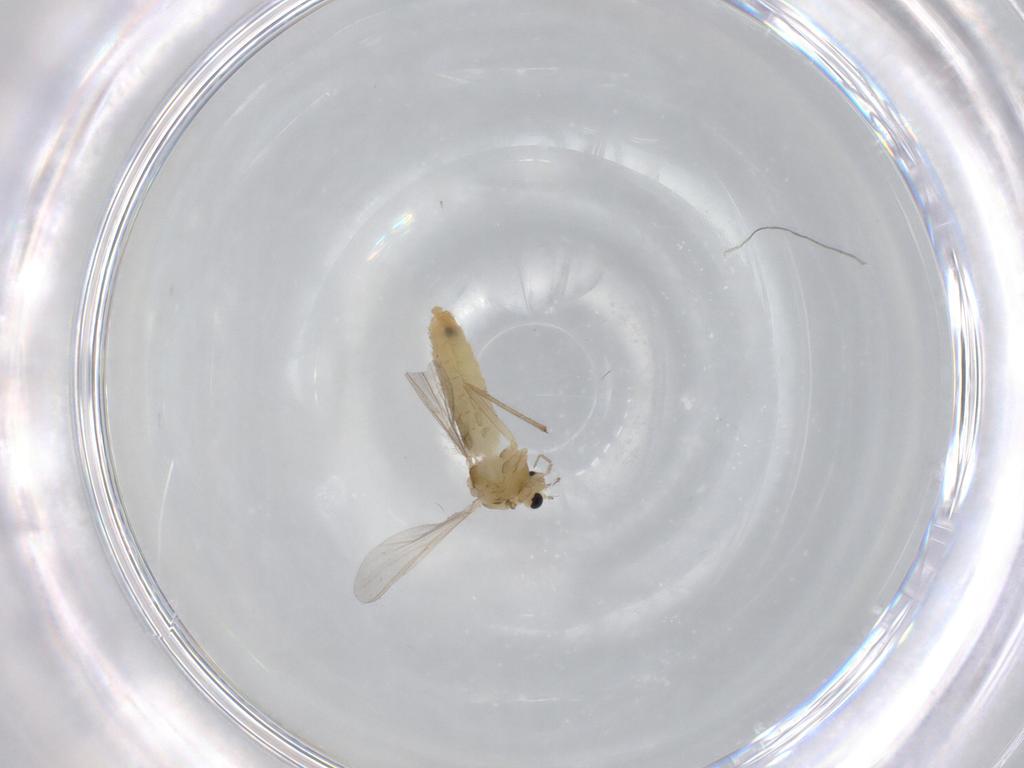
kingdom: Animalia
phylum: Arthropoda
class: Insecta
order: Diptera
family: Chironomidae
